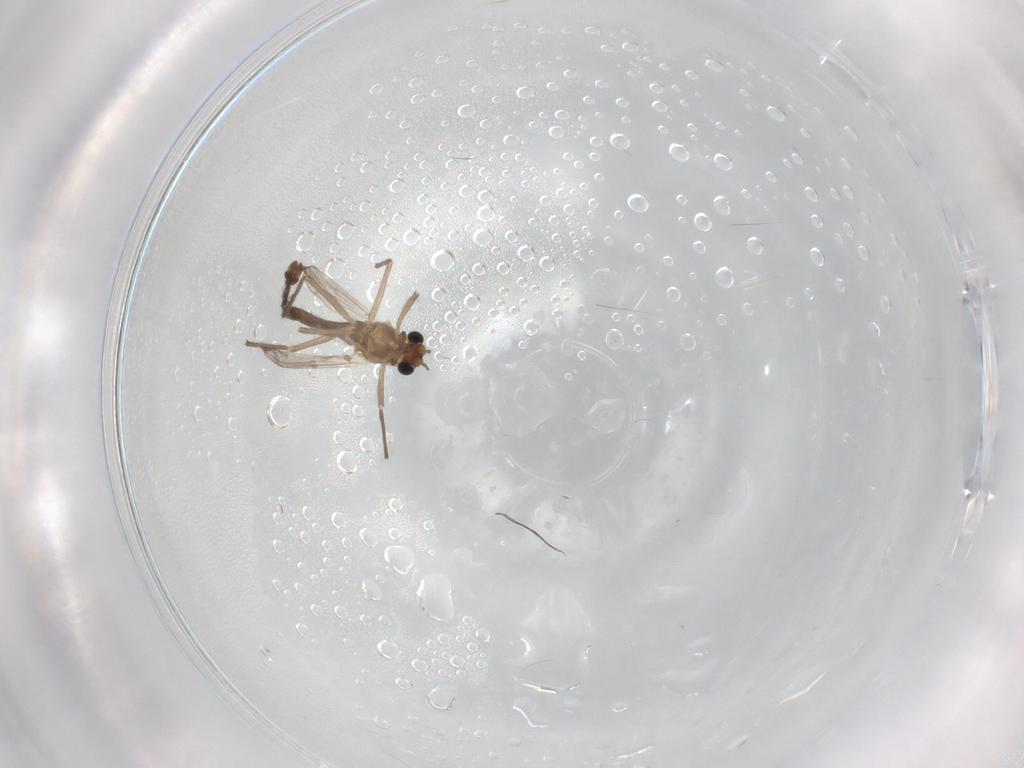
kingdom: Animalia
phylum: Arthropoda
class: Insecta
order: Diptera
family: Chironomidae
